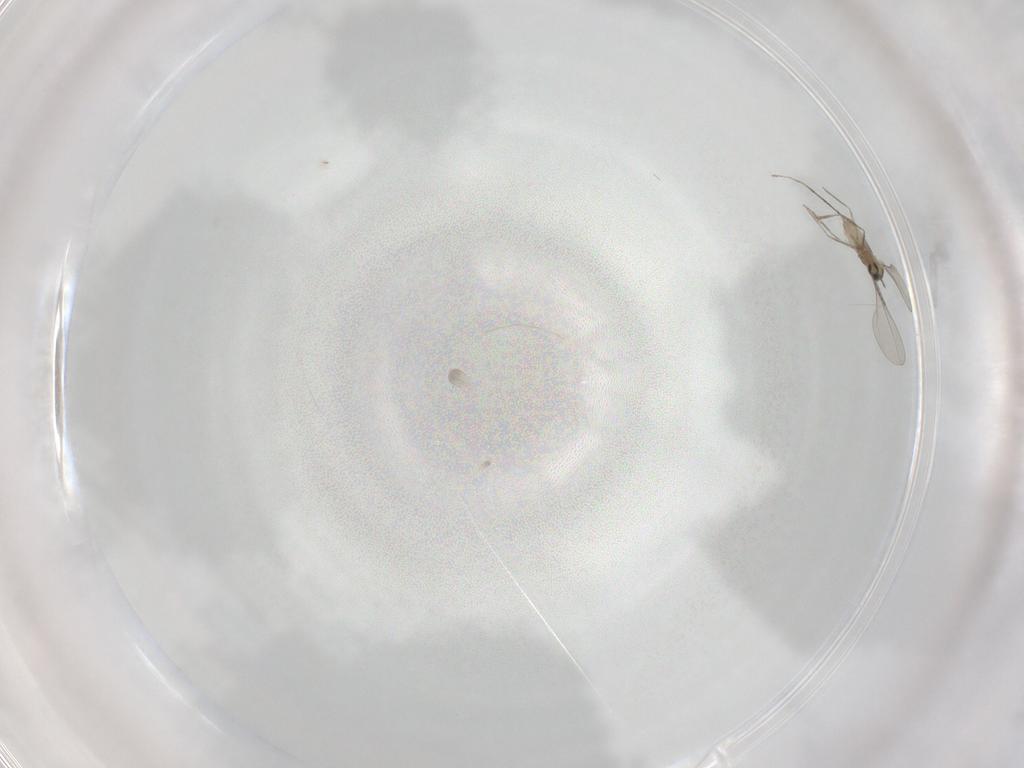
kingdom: Animalia
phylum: Arthropoda
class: Insecta
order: Diptera
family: Cecidomyiidae
